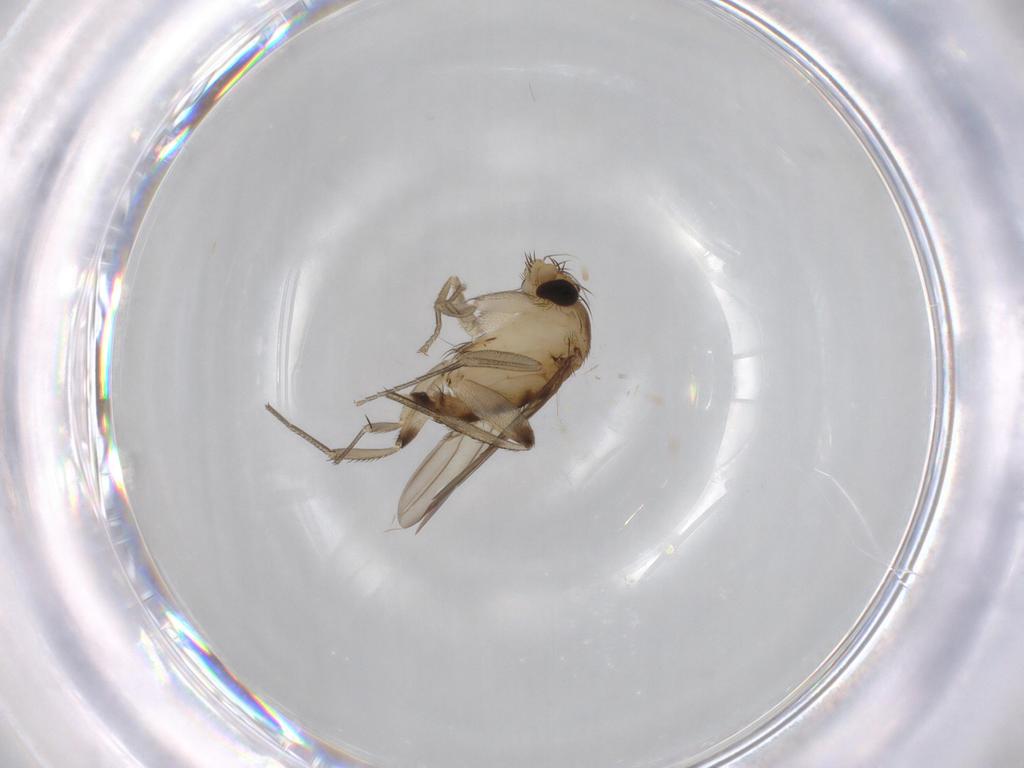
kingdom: Animalia
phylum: Arthropoda
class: Insecta
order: Diptera
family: Phoridae
